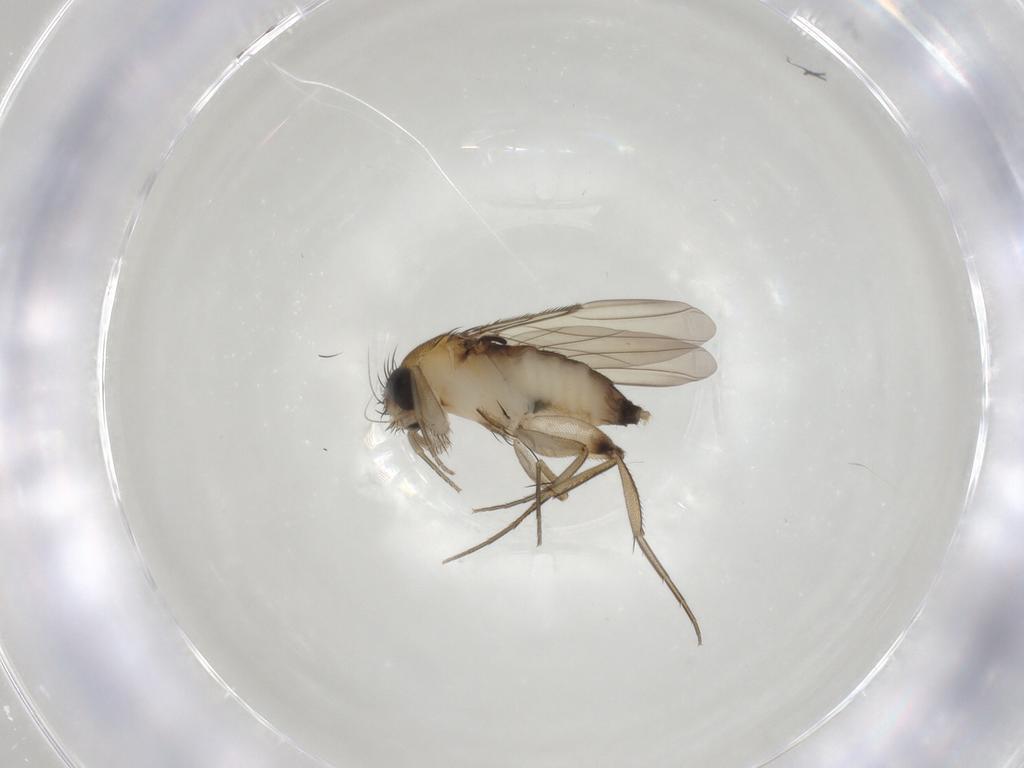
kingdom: Animalia
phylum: Arthropoda
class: Insecta
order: Diptera
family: Phoridae
